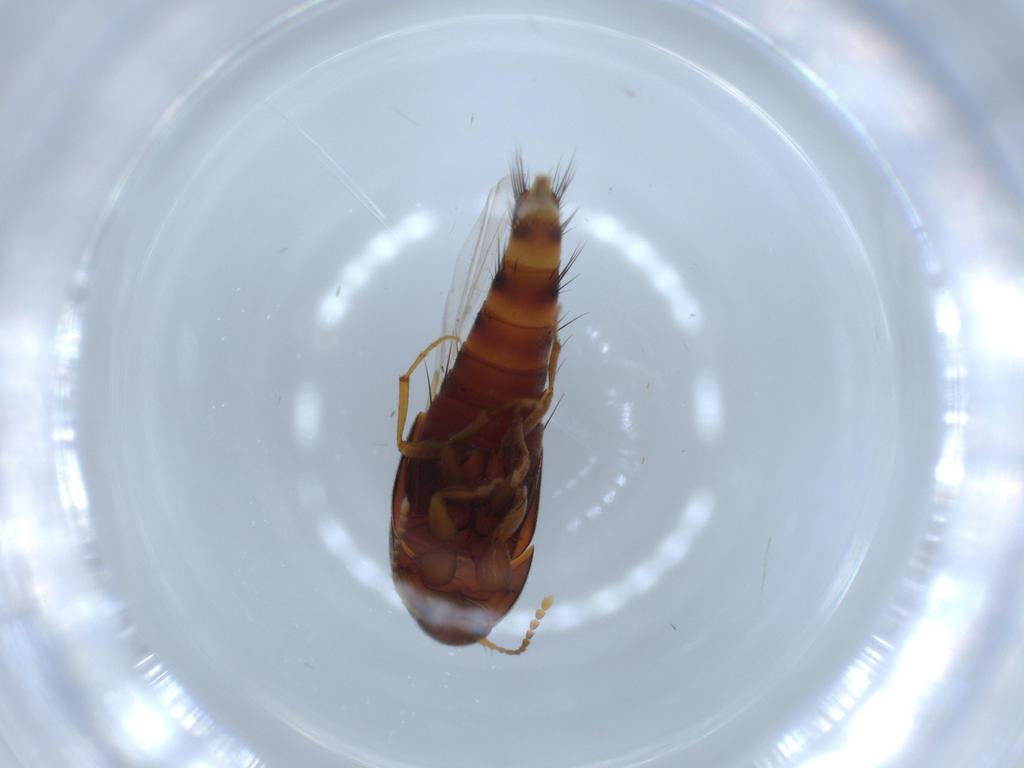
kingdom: Animalia
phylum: Arthropoda
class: Insecta
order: Coleoptera
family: Staphylinidae
